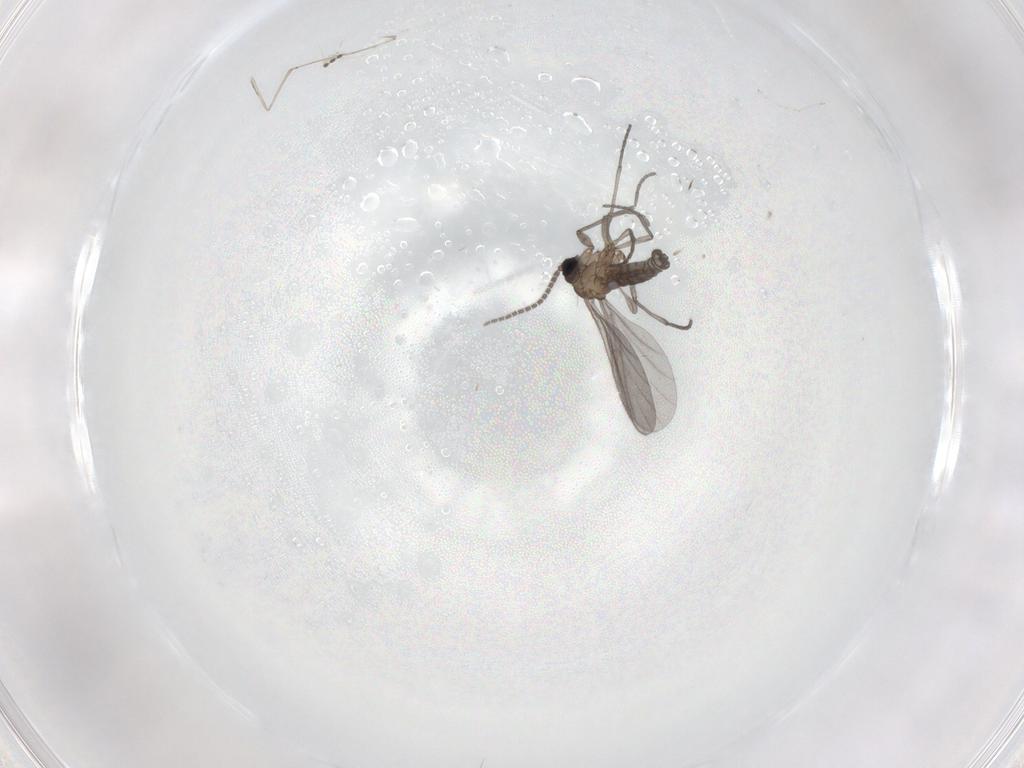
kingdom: Animalia
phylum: Arthropoda
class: Insecta
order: Diptera
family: Sciaridae
